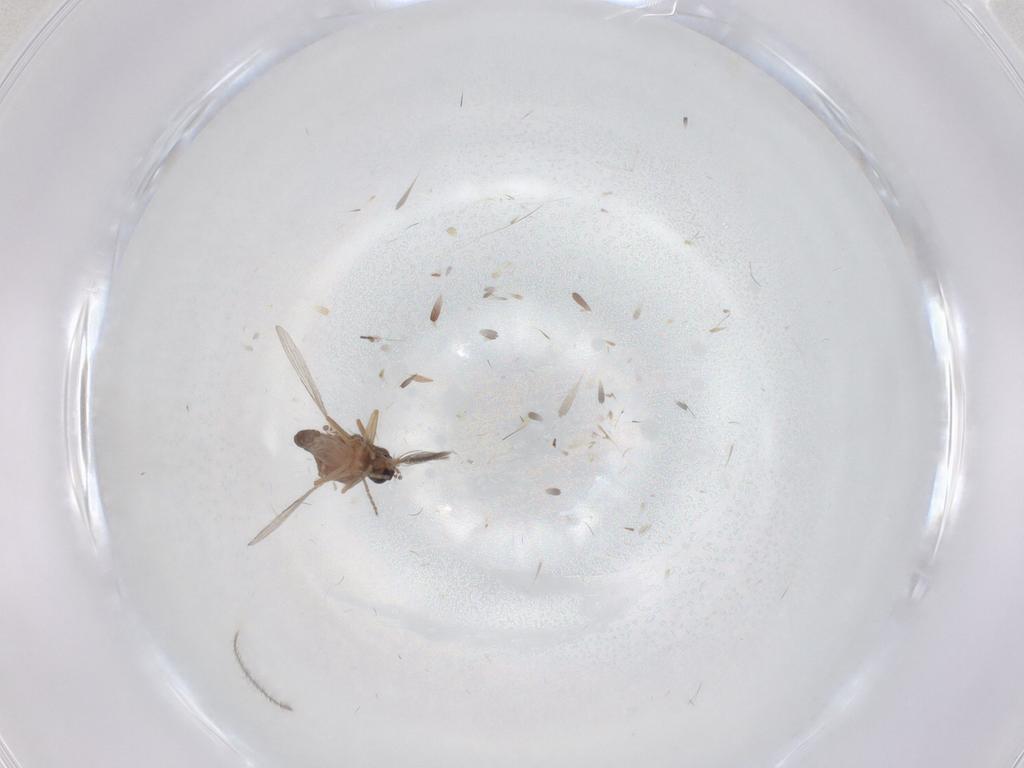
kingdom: Animalia
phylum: Arthropoda
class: Insecta
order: Diptera
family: Ceratopogonidae
